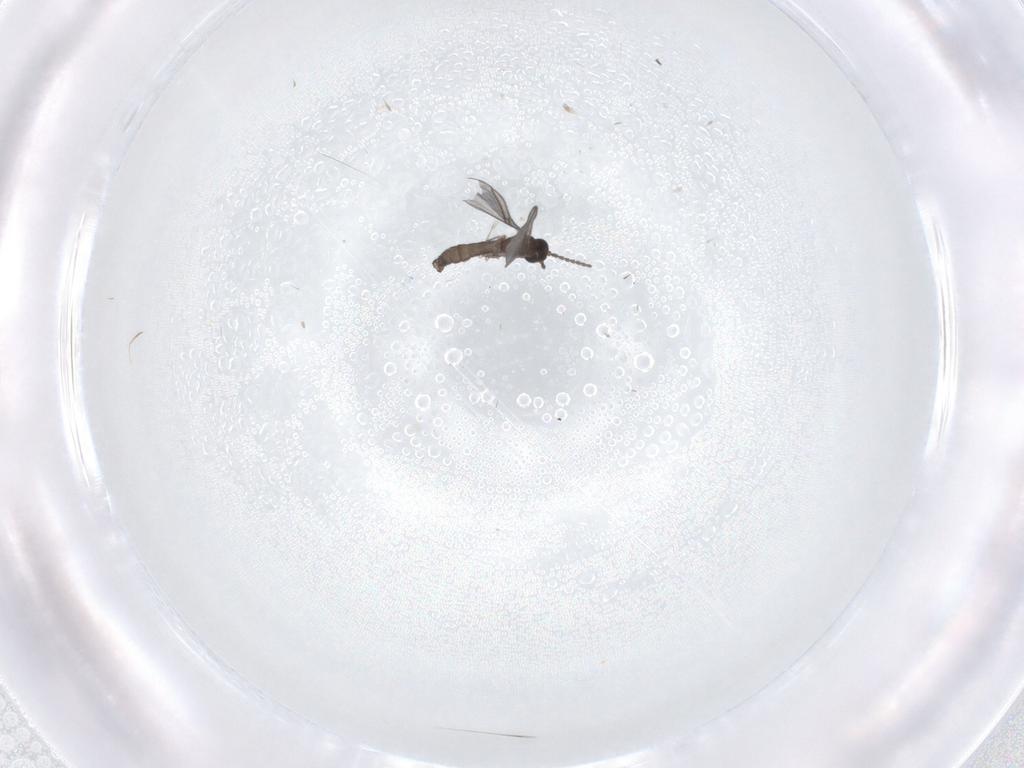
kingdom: Animalia
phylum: Arthropoda
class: Insecta
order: Diptera
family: Sciaridae
